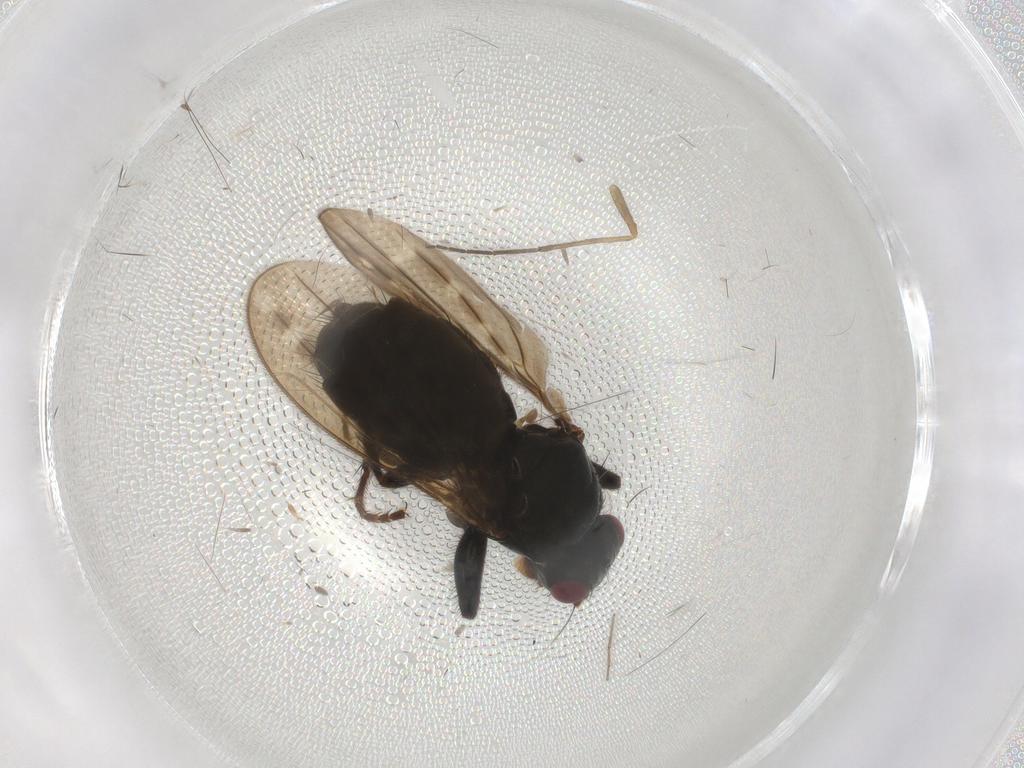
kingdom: Animalia
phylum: Arthropoda
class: Insecta
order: Diptera
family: Sphaeroceridae
